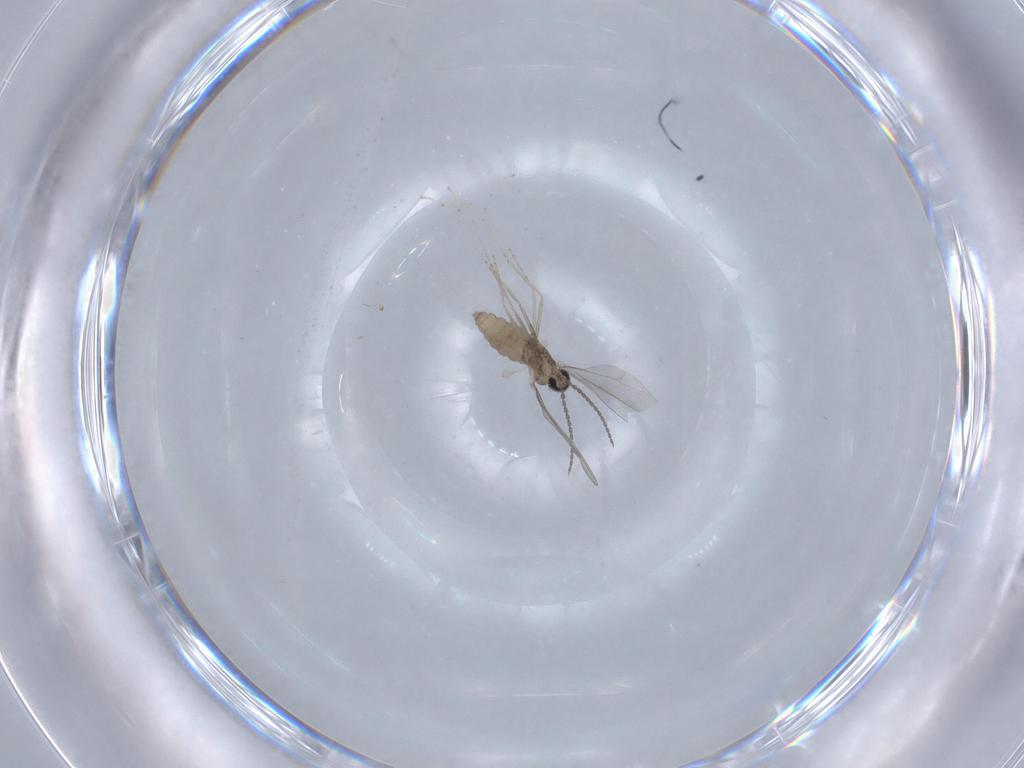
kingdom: Animalia
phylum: Arthropoda
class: Insecta
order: Diptera
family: Cecidomyiidae
